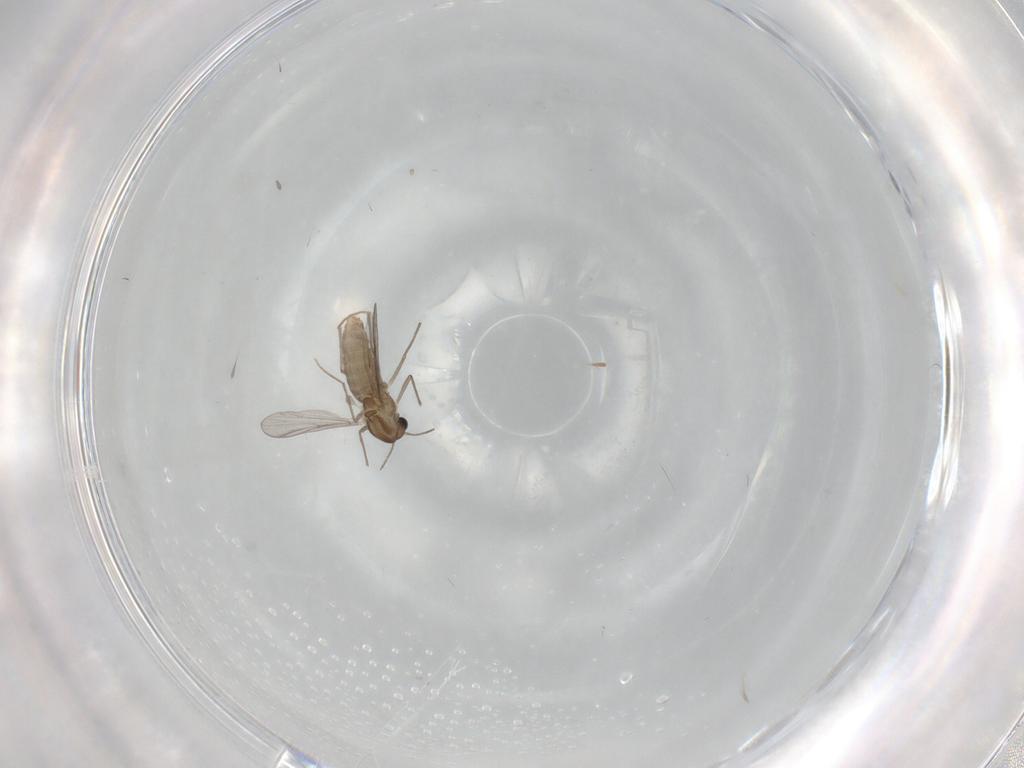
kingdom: Animalia
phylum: Arthropoda
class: Insecta
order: Diptera
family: Chironomidae
